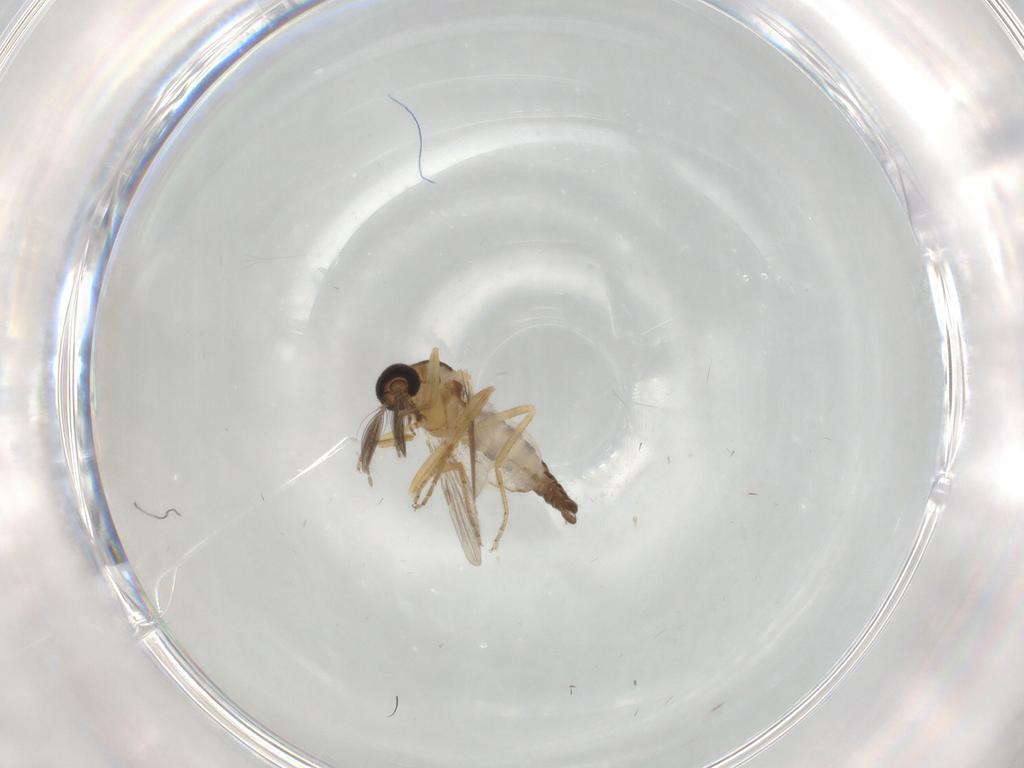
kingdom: Animalia
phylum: Arthropoda
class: Insecta
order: Diptera
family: Ceratopogonidae
